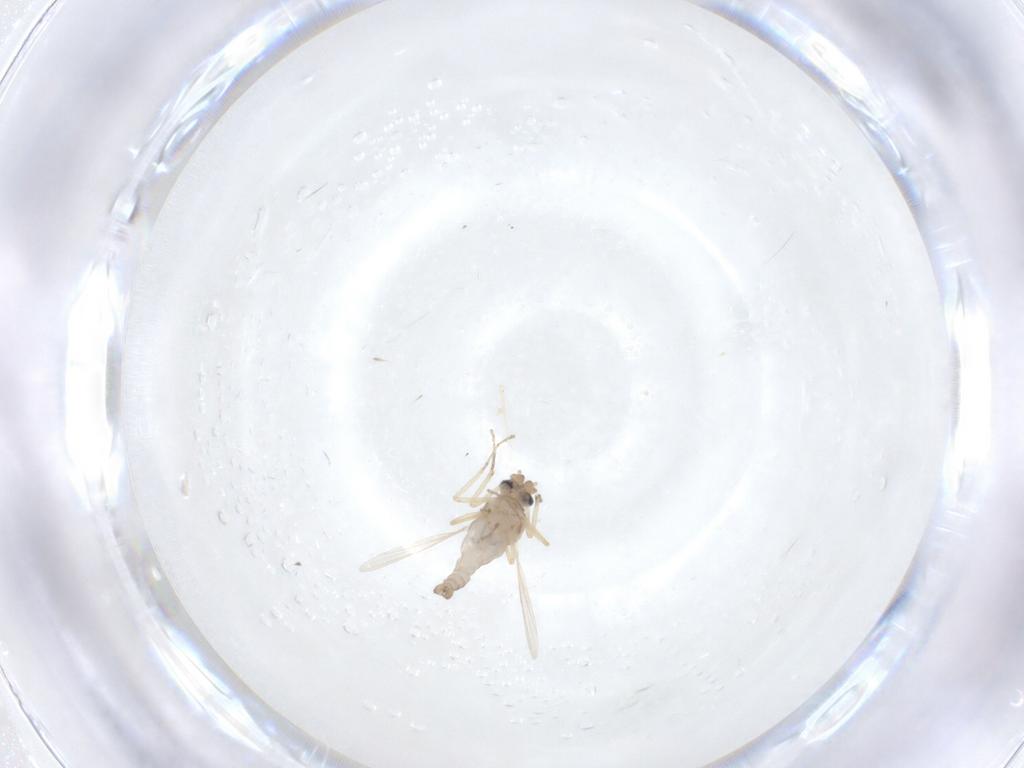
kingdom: Animalia
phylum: Arthropoda
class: Insecta
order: Diptera
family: Ceratopogonidae
